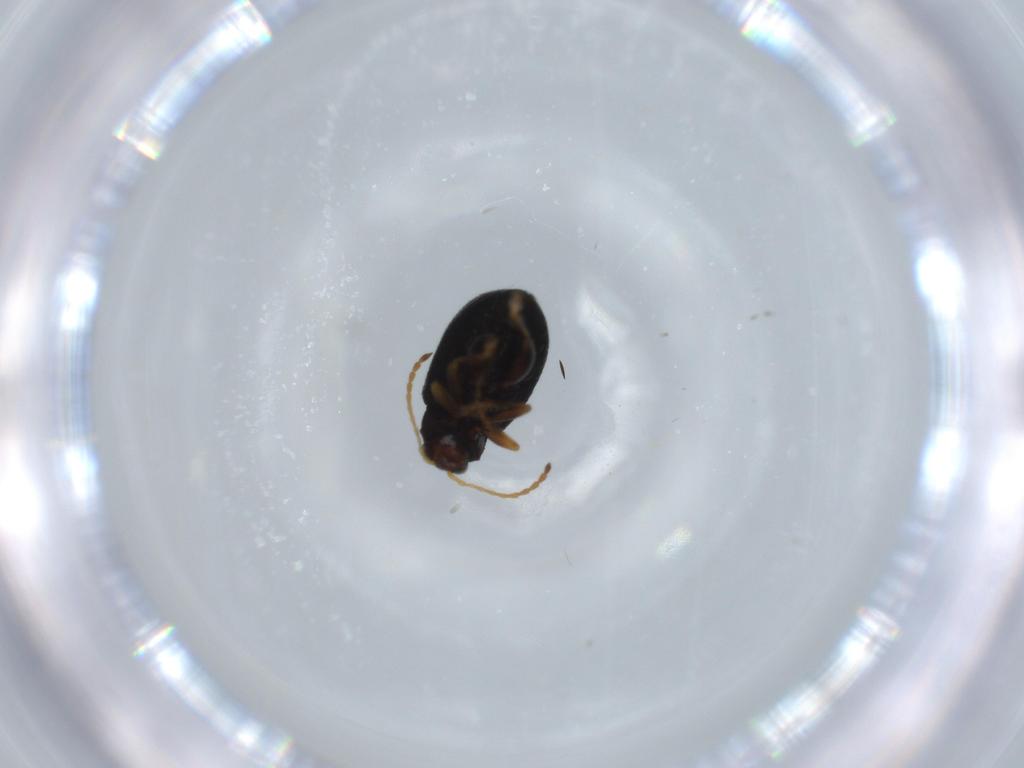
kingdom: Animalia
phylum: Arthropoda
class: Insecta
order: Coleoptera
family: Chrysomelidae
